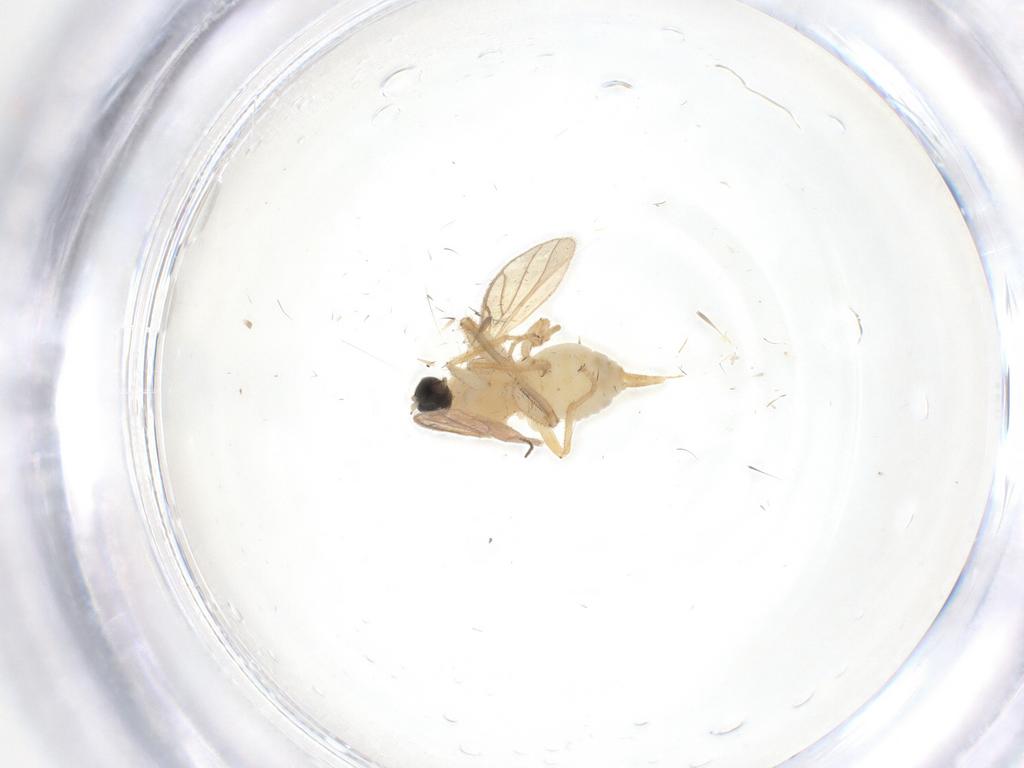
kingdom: Animalia
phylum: Arthropoda
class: Insecta
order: Diptera
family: Chironomidae
